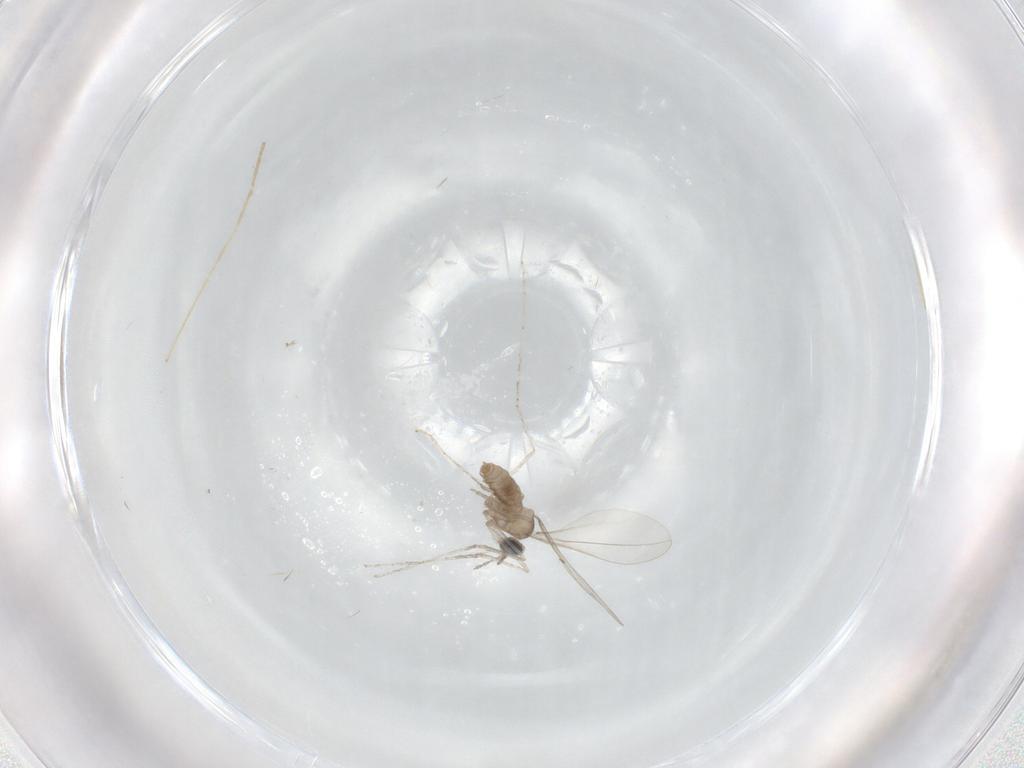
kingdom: Animalia
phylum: Arthropoda
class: Insecta
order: Diptera
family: Cecidomyiidae
